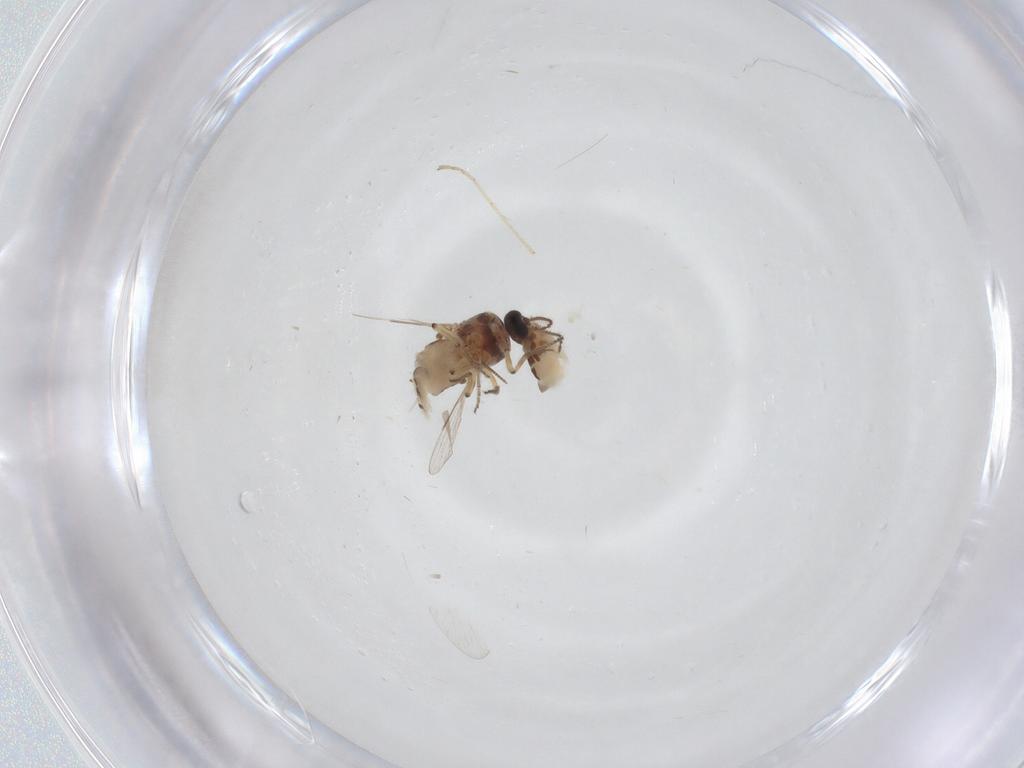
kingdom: Animalia
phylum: Arthropoda
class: Insecta
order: Diptera
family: Ceratopogonidae
